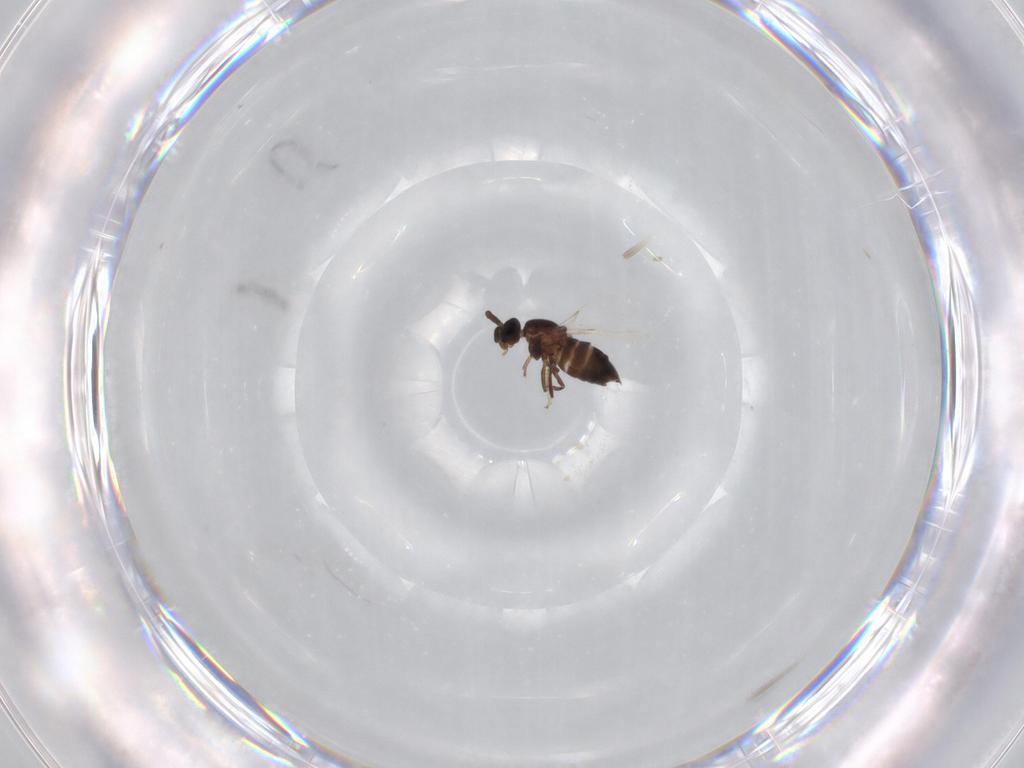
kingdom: Animalia
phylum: Arthropoda
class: Insecta
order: Diptera
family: Scatopsidae
